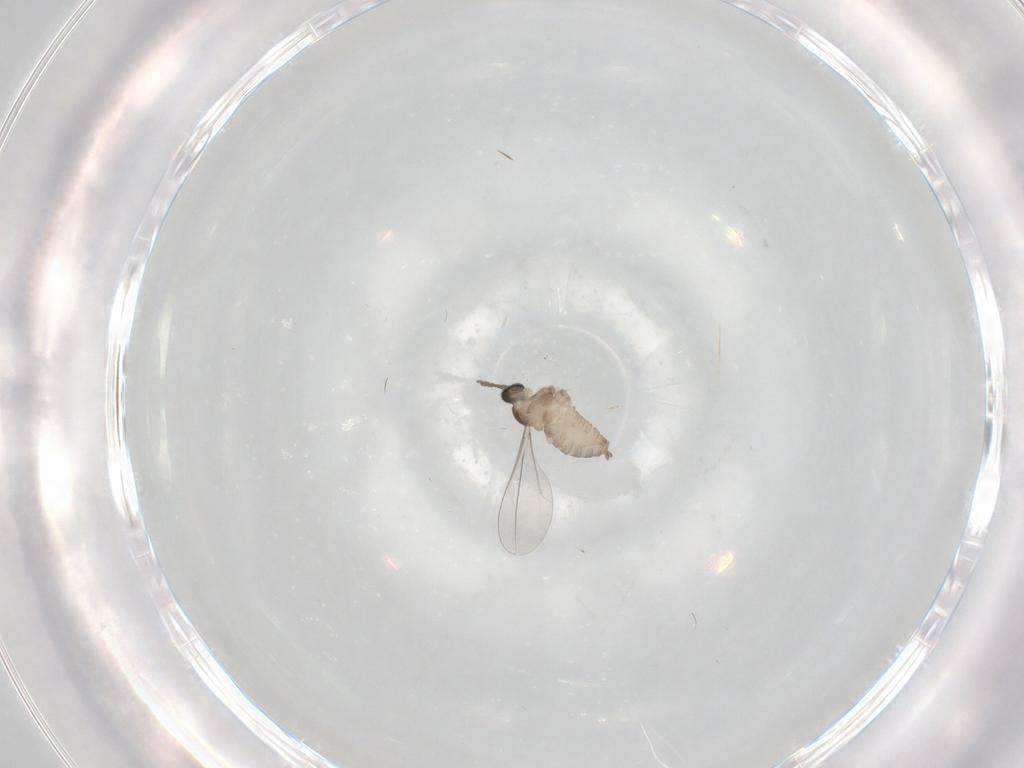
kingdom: Animalia
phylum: Arthropoda
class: Insecta
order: Diptera
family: Cecidomyiidae
